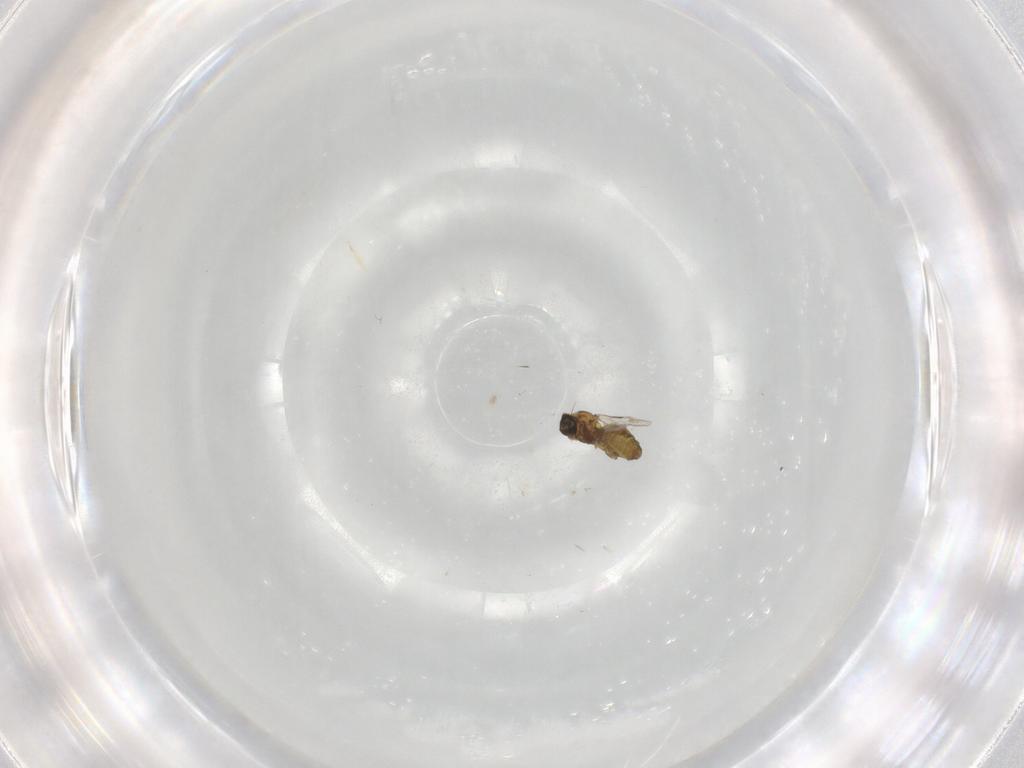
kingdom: Animalia
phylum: Arthropoda
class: Insecta
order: Diptera
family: Ceratopogonidae
